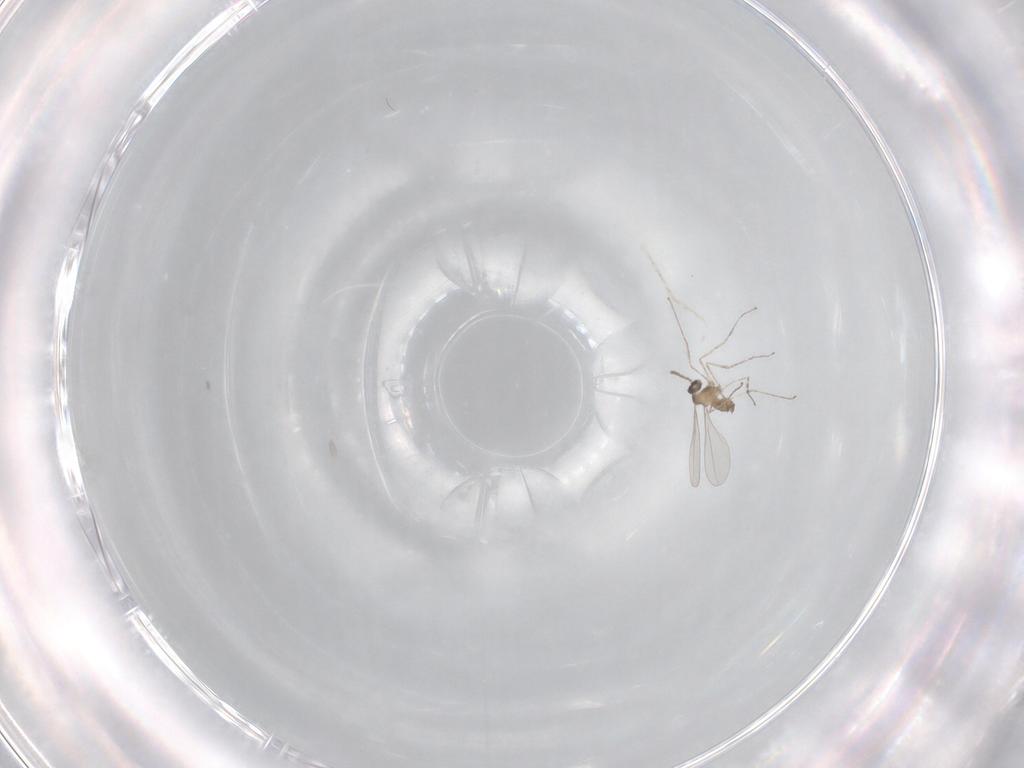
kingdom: Animalia
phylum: Arthropoda
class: Insecta
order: Diptera
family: Cecidomyiidae
